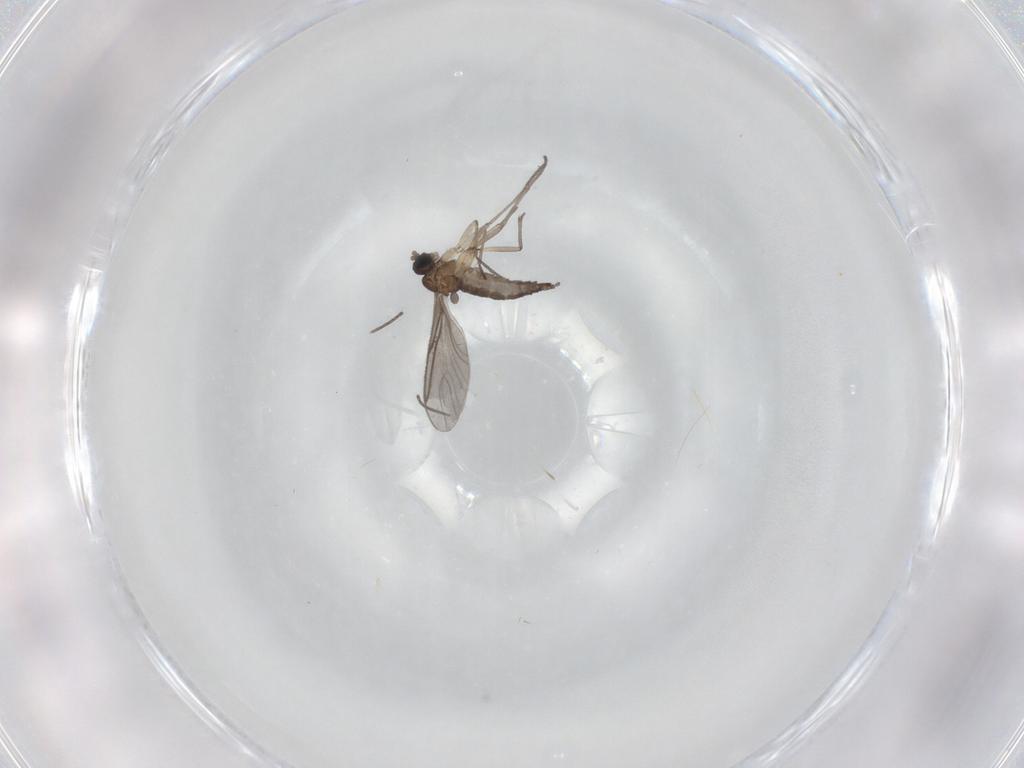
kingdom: Animalia
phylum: Arthropoda
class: Insecta
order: Diptera
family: Sciaridae
